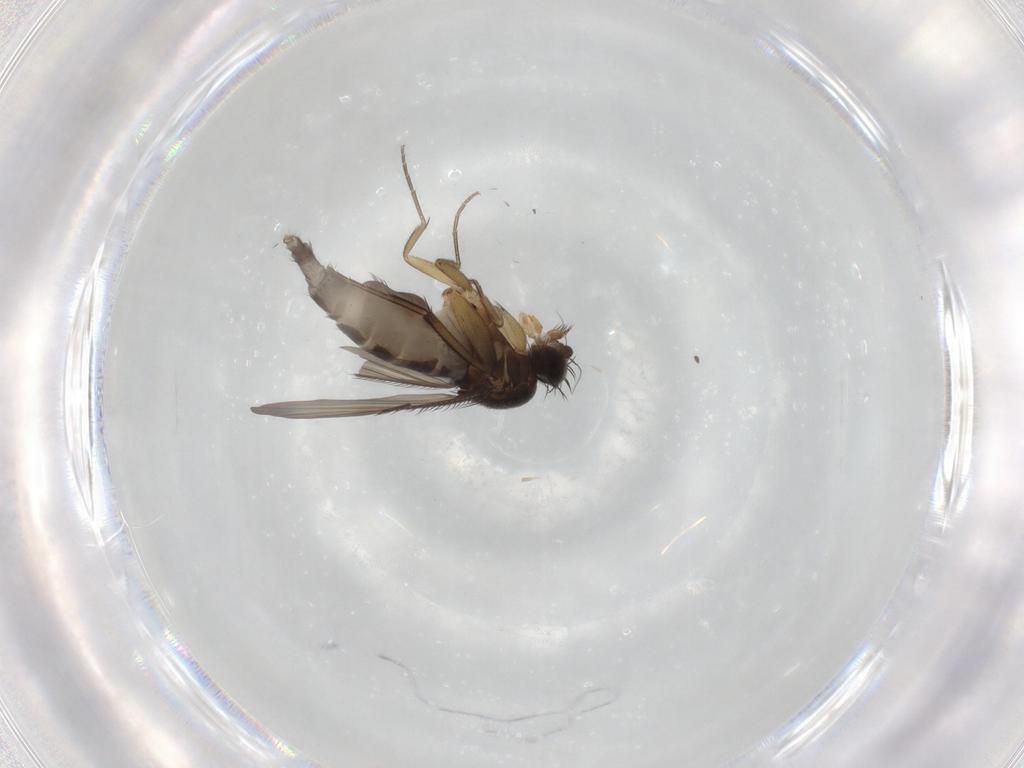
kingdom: Animalia
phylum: Arthropoda
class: Insecta
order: Diptera
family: Phoridae
